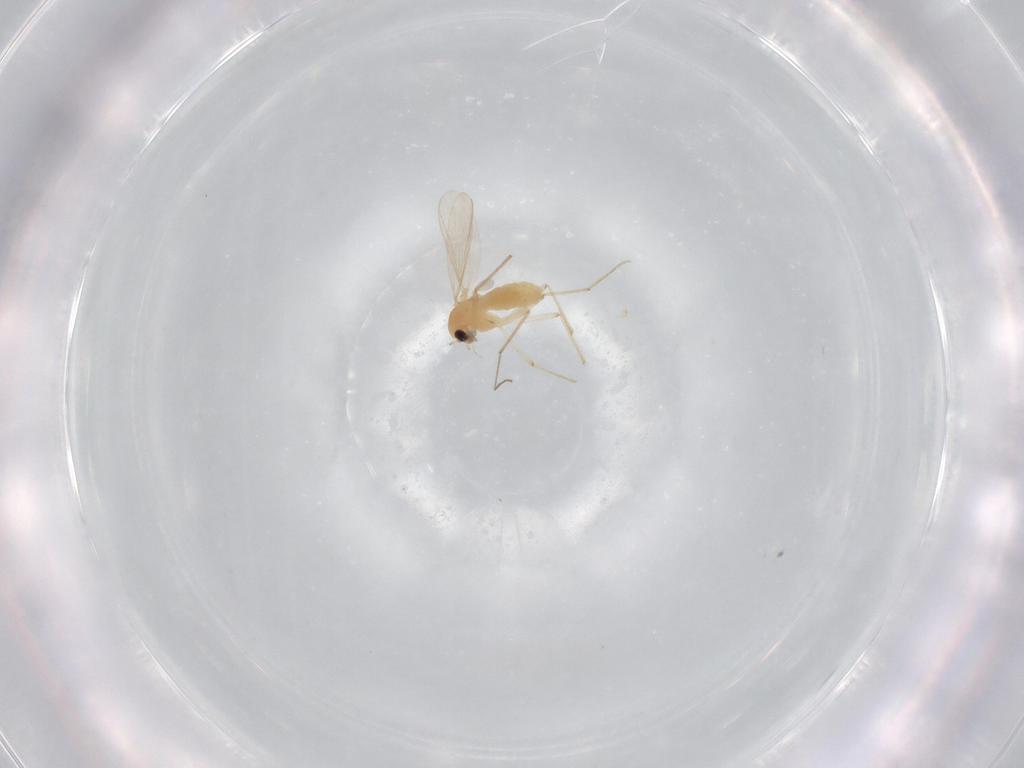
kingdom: Animalia
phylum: Arthropoda
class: Insecta
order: Diptera
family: Chironomidae
